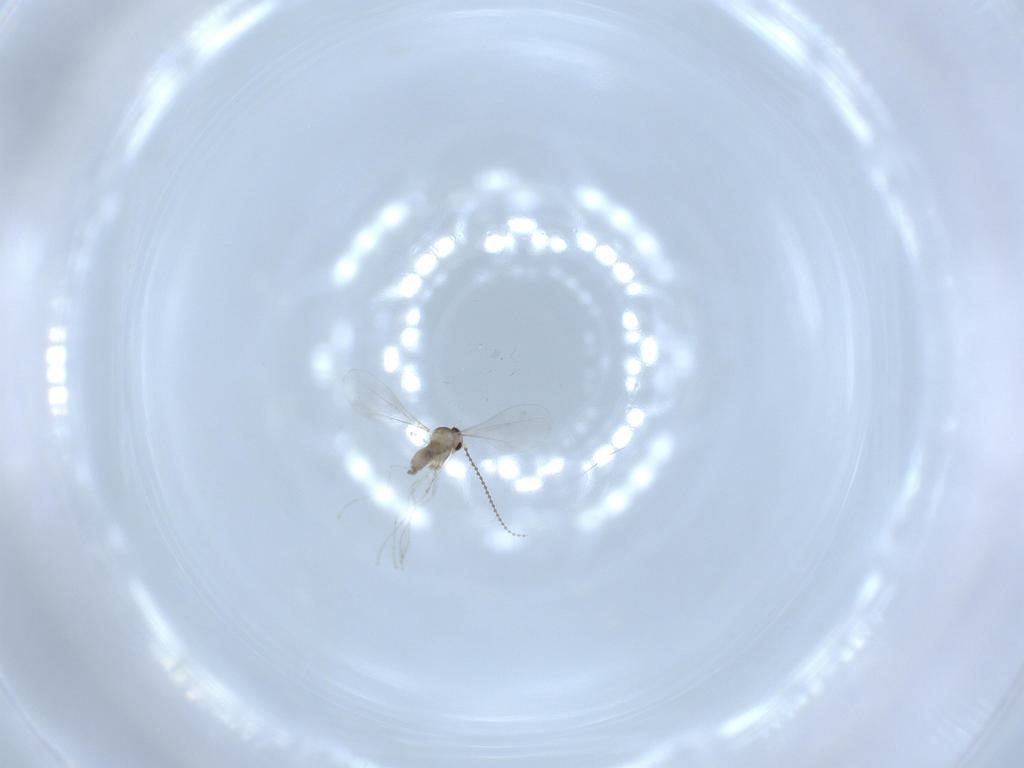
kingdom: Animalia
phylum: Arthropoda
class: Insecta
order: Diptera
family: Cecidomyiidae
